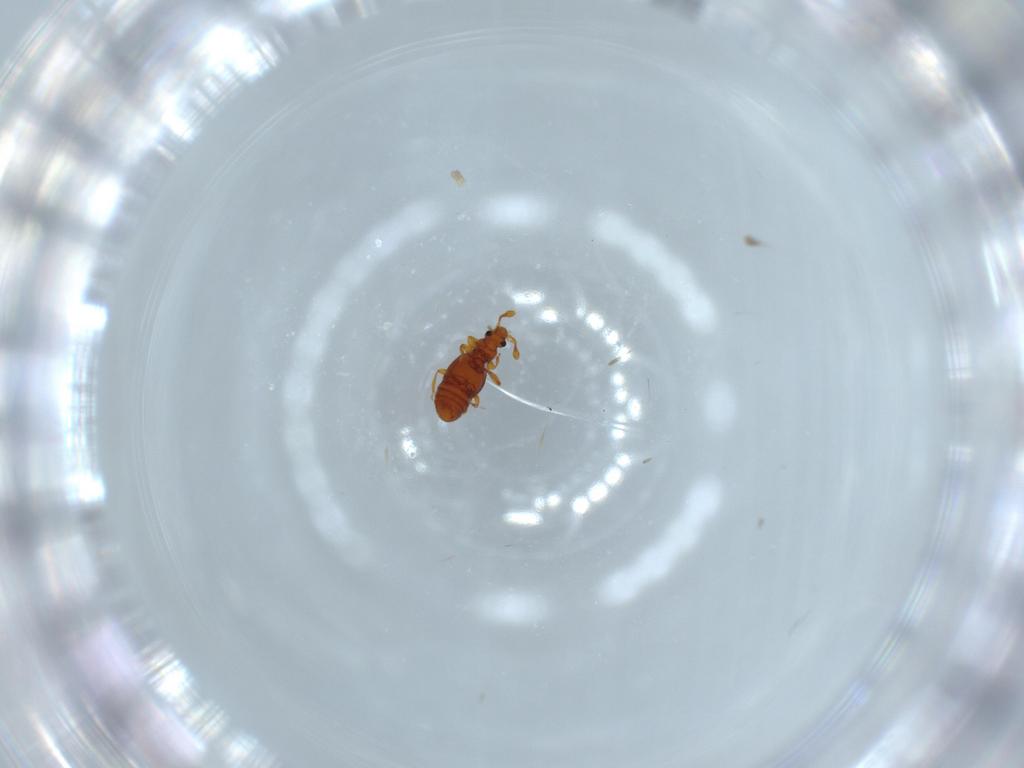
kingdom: Animalia
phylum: Arthropoda
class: Insecta
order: Coleoptera
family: Staphylinidae
